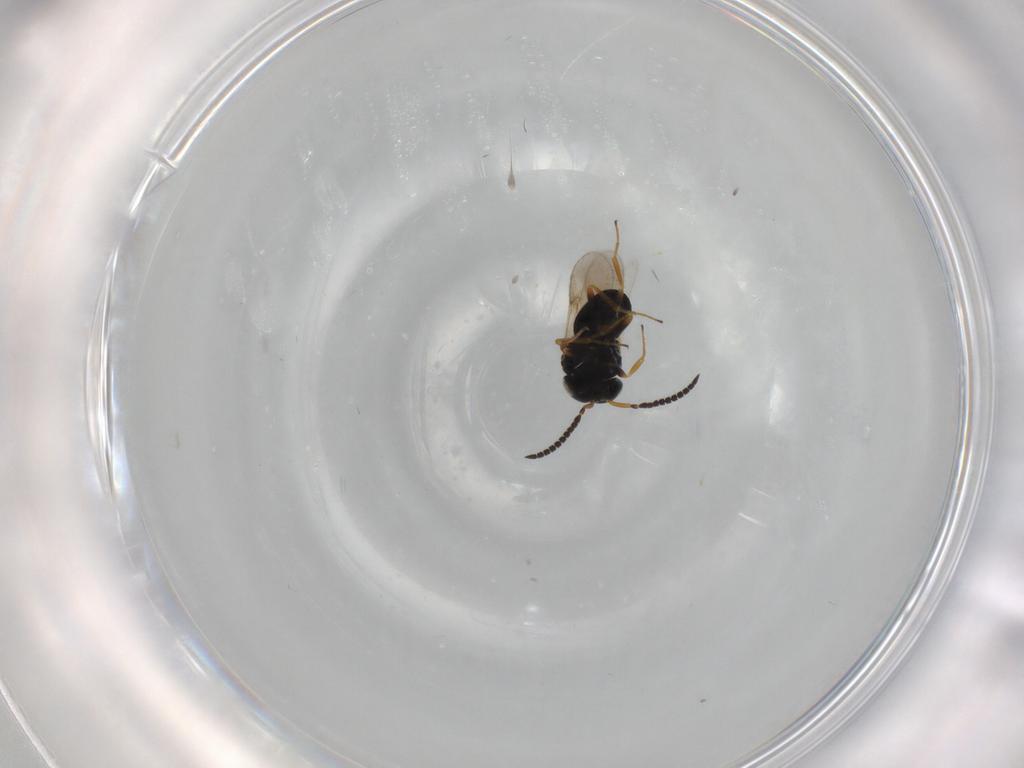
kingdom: Animalia
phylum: Arthropoda
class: Insecta
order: Hymenoptera
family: Scelionidae
